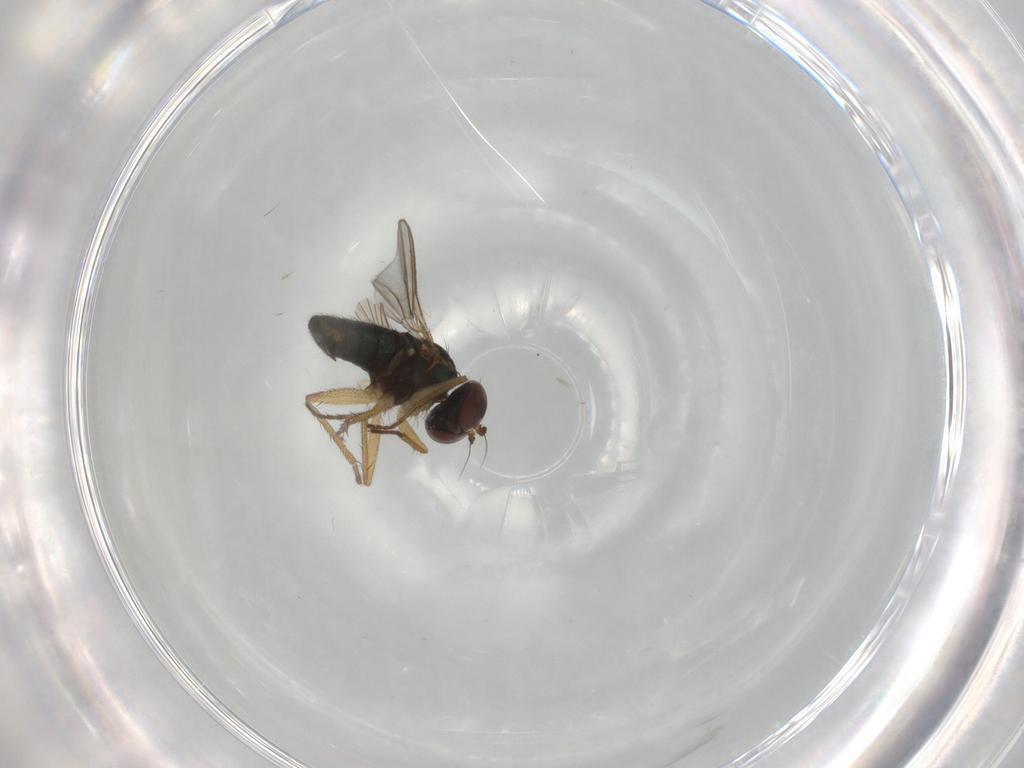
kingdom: Animalia
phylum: Arthropoda
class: Insecta
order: Diptera
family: Dolichopodidae
